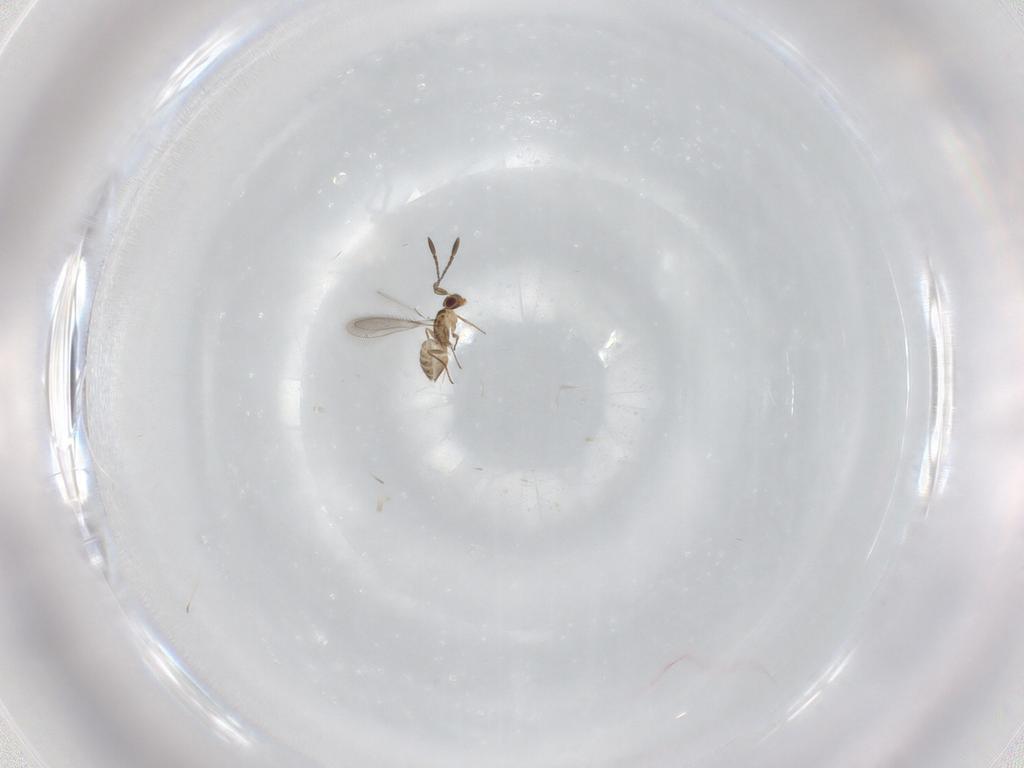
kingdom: Animalia
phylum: Arthropoda
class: Insecta
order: Hymenoptera
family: Mymaridae
